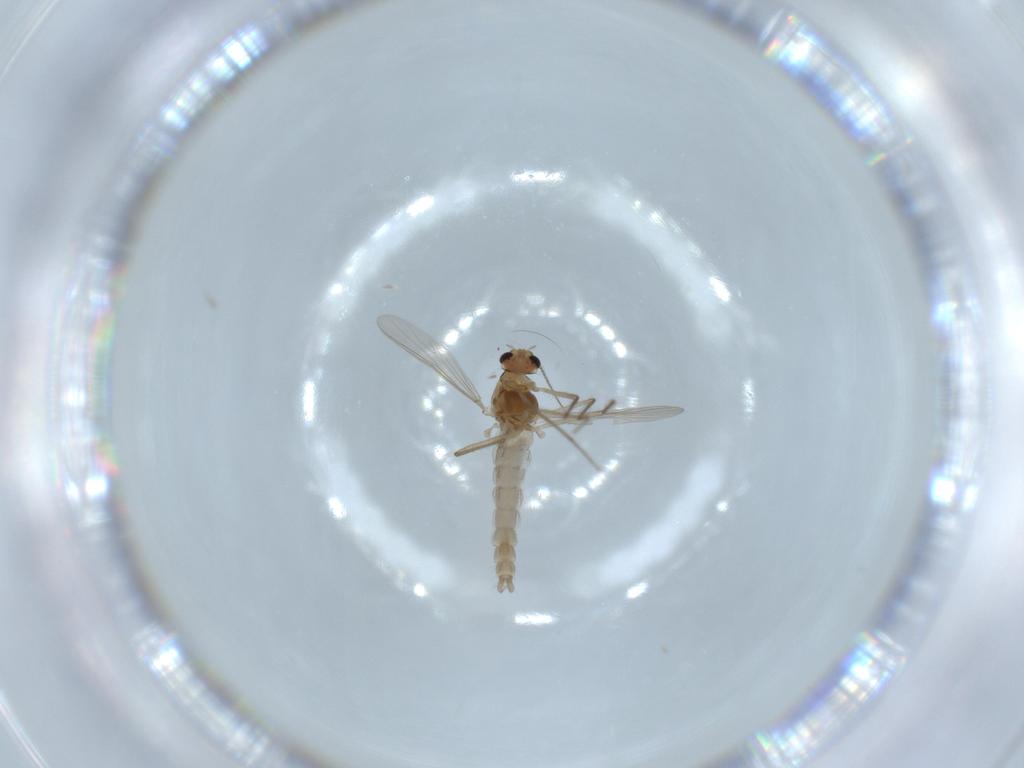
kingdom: Animalia
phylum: Arthropoda
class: Insecta
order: Diptera
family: Chironomidae
